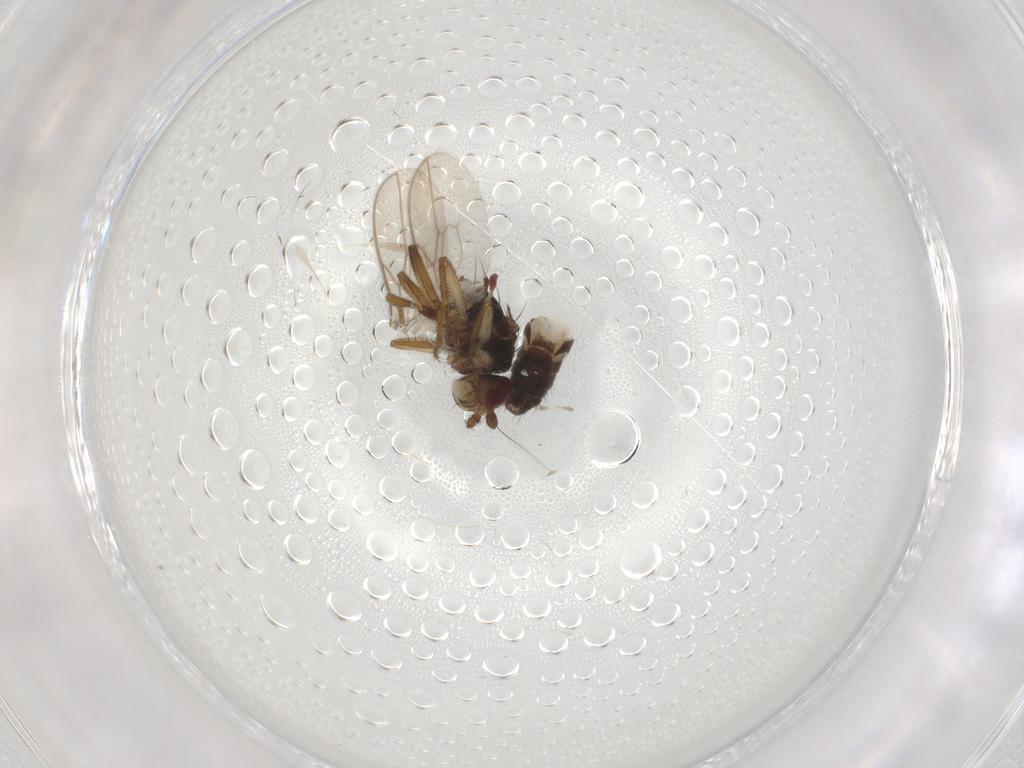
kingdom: Animalia
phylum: Arthropoda
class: Insecta
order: Diptera
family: Sphaeroceridae
